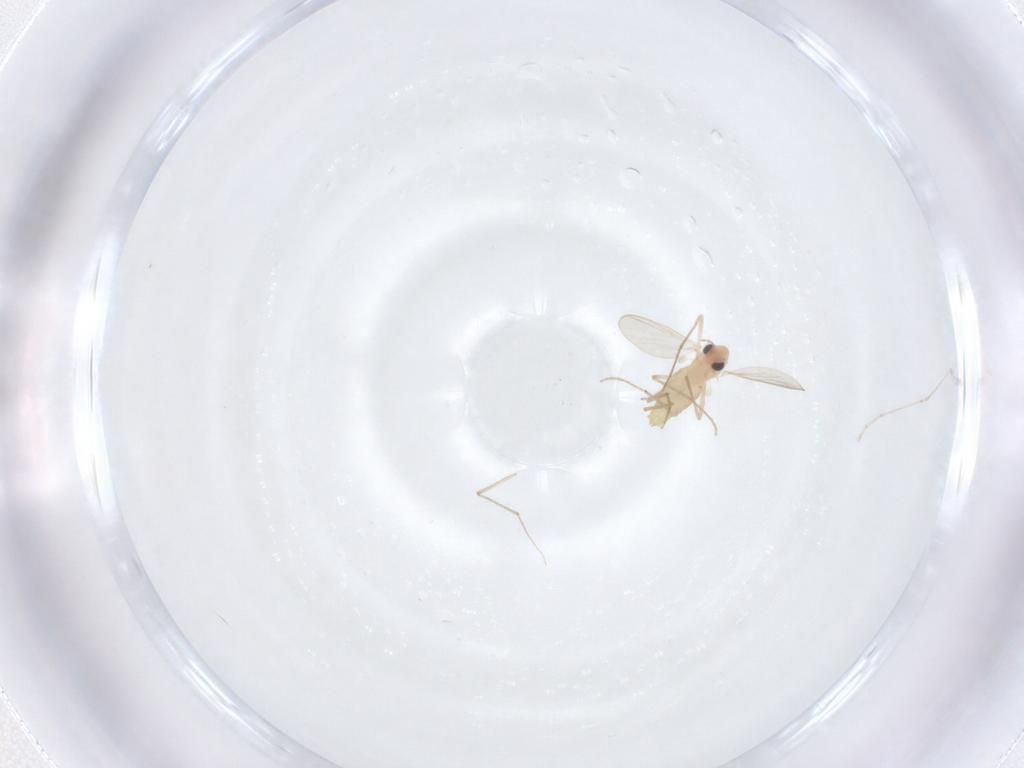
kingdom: Animalia
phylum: Arthropoda
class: Insecta
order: Diptera
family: Chironomidae
